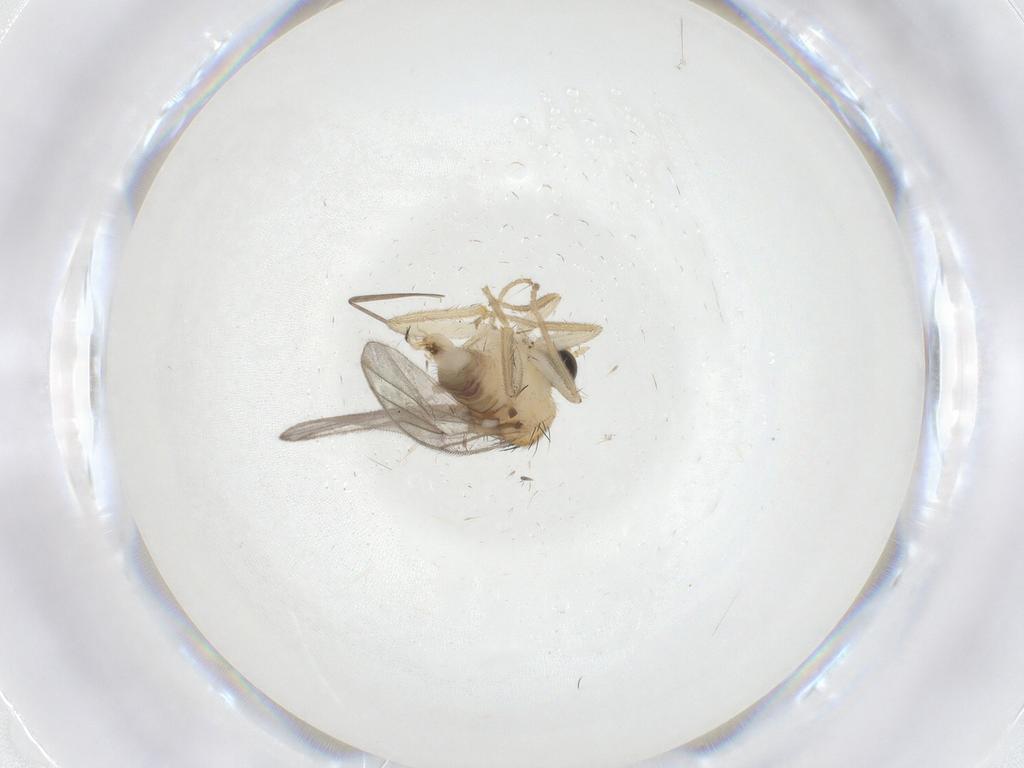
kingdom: Animalia
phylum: Arthropoda
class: Insecta
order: Diptera
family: Hybotidae
